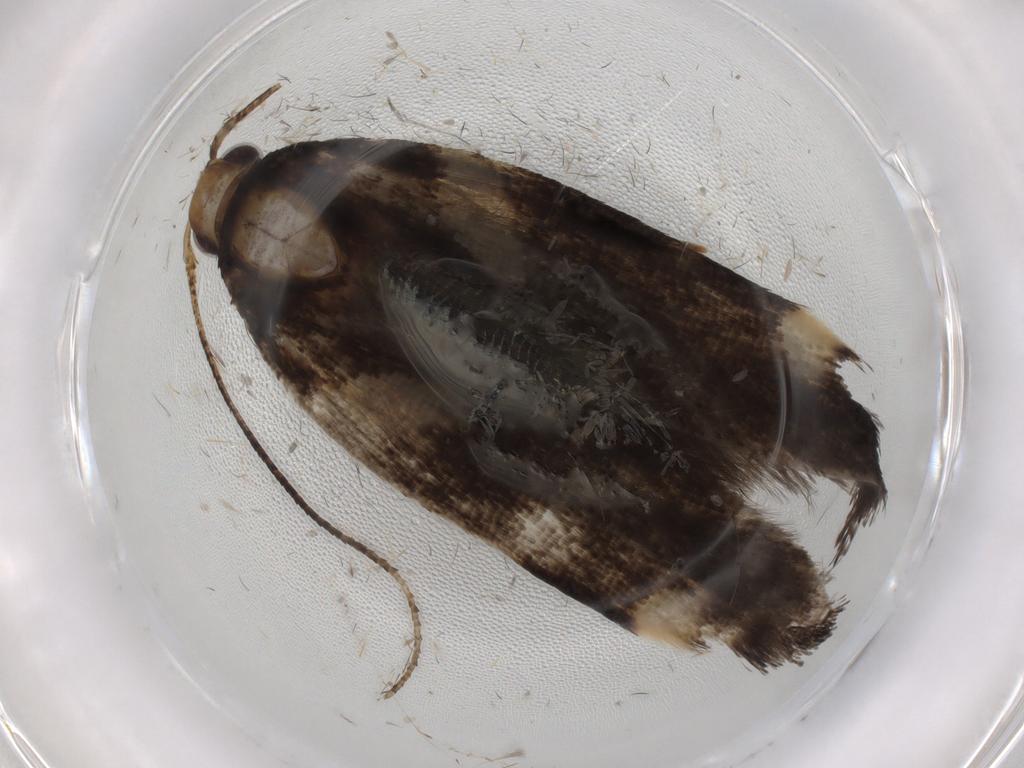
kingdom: Animalia
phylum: Arthropoda
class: Insecta
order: Lepidoptera
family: Gelechiidae
